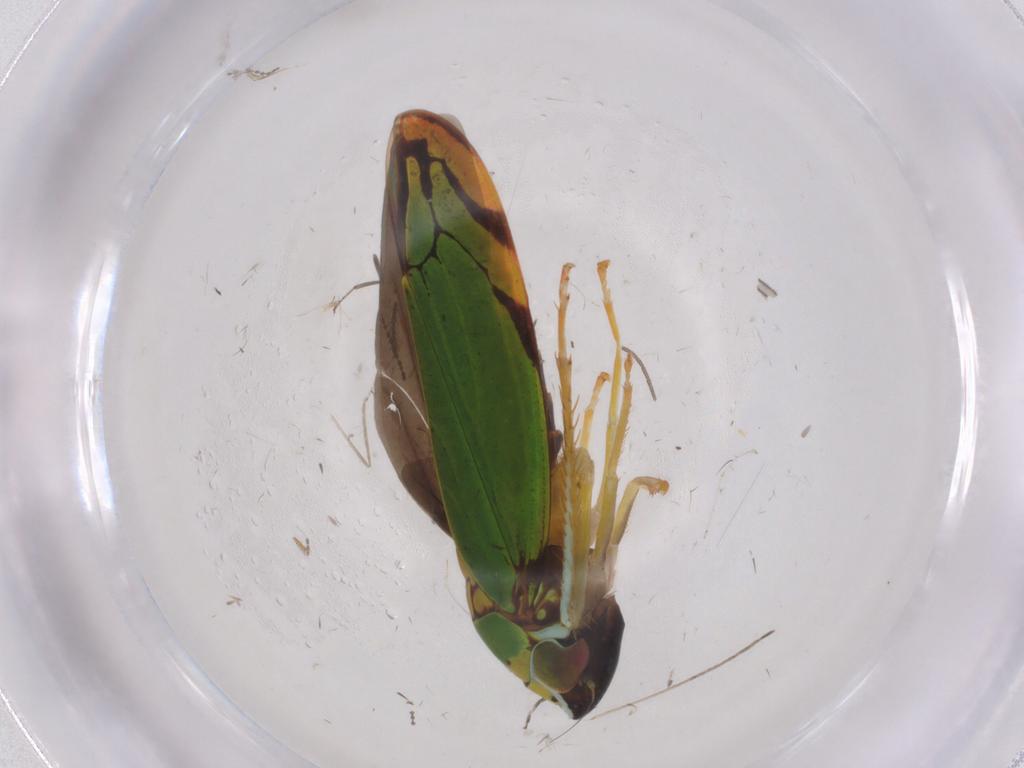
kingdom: Animalia
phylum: Arthropoda
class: Insecta
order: Hemiptera
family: Cicadellidae
